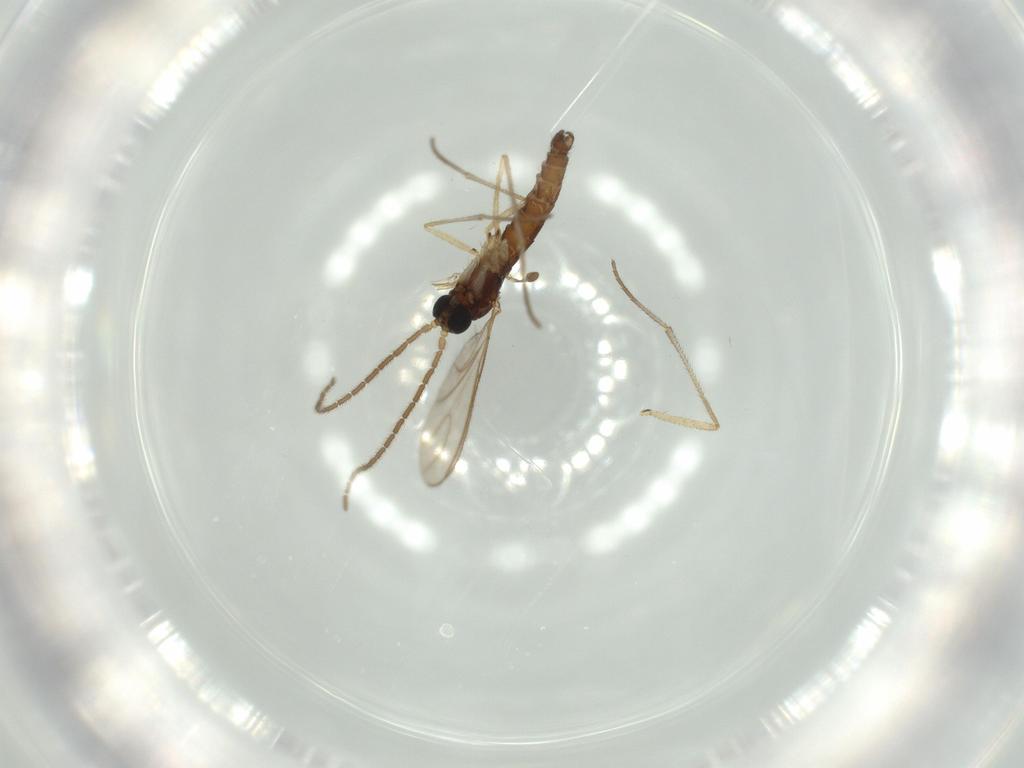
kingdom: Animalia
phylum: Arthropoda
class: Insecta
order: Diptera
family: Sciaridae
